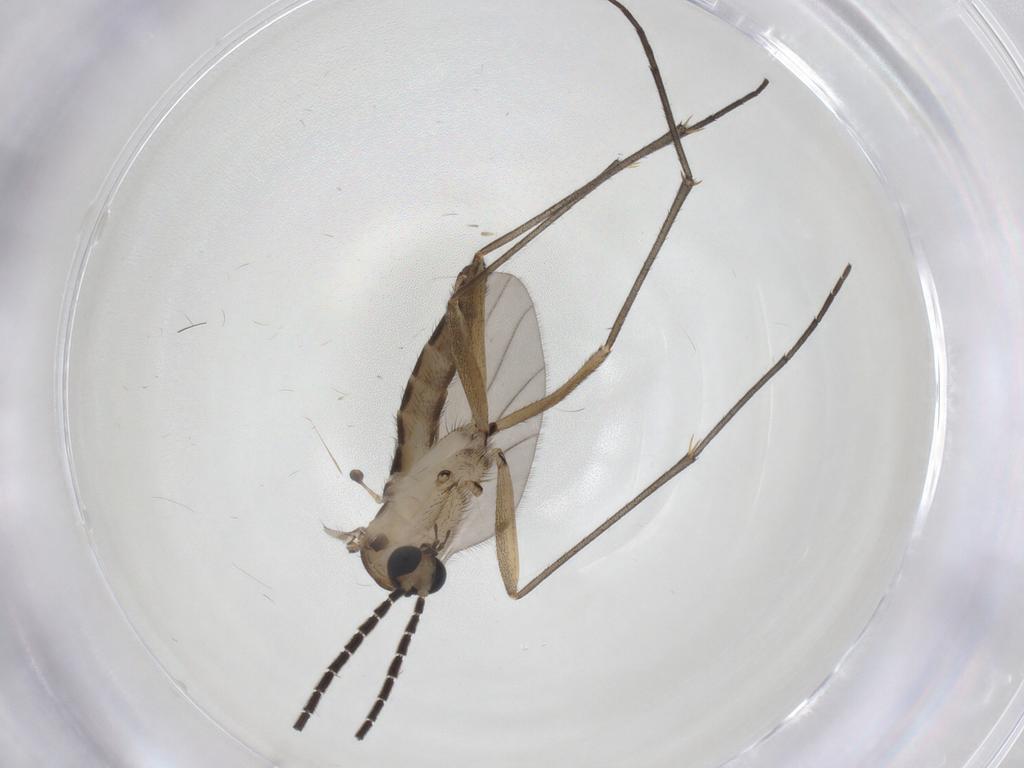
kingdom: Animalia
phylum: Arthropoda
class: Insecta
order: Diptera
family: Sciaridae
